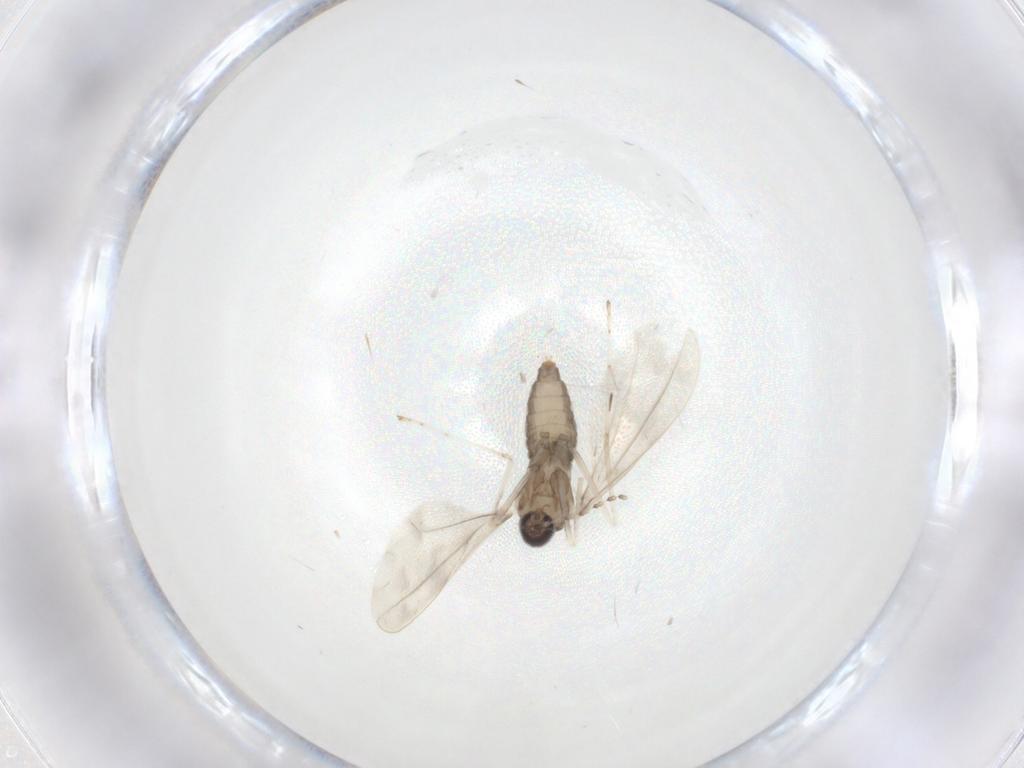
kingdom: Animalia
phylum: Arthropoda
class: Insecta
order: Diptera
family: Cecidomyiidae
